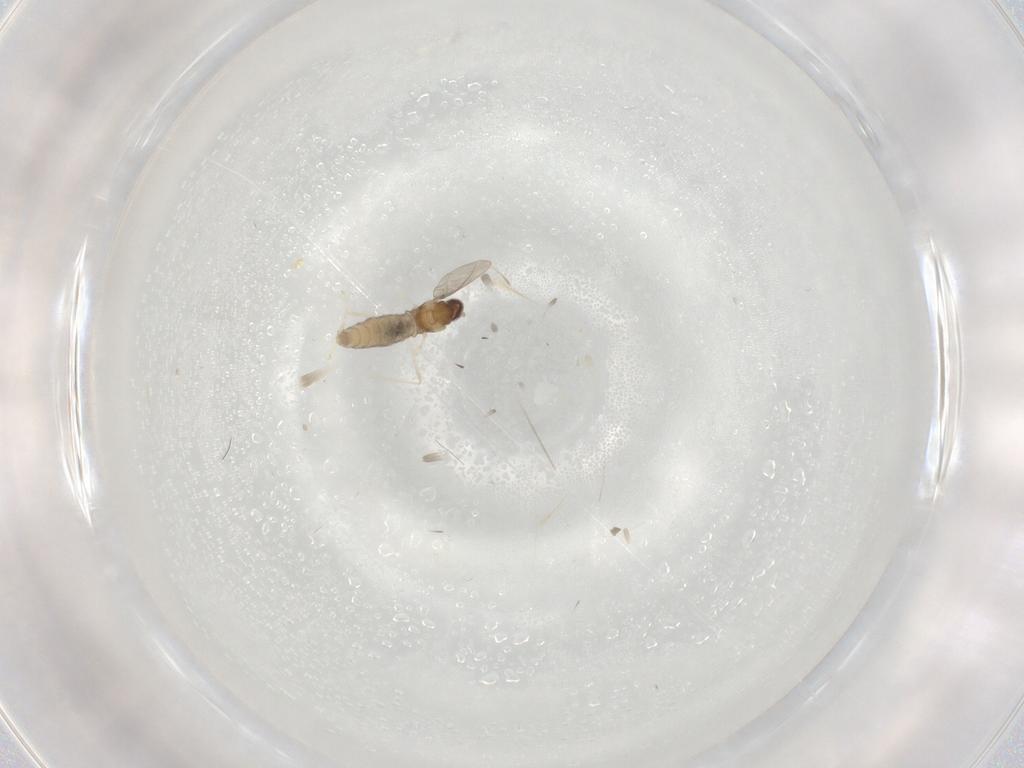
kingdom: Animalia
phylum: Arthropoda
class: Insecta
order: Diptera
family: Cecidomyiidae
